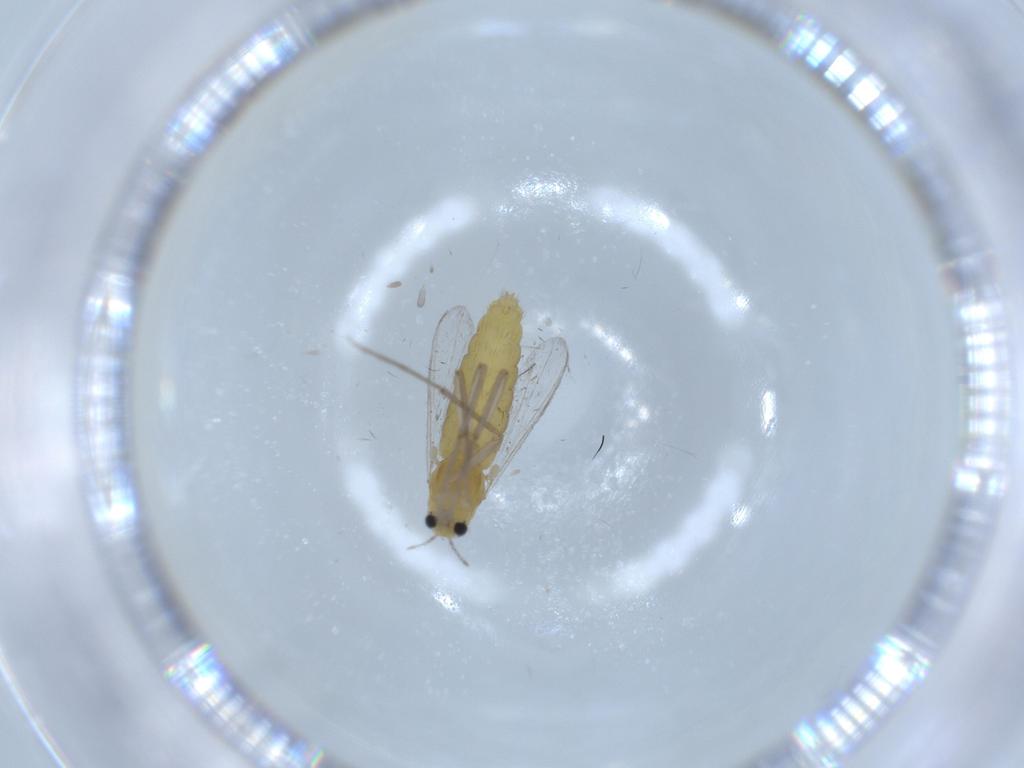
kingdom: Animalia
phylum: Arthropoda
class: Insecta
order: Diptera
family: Chironomidae
